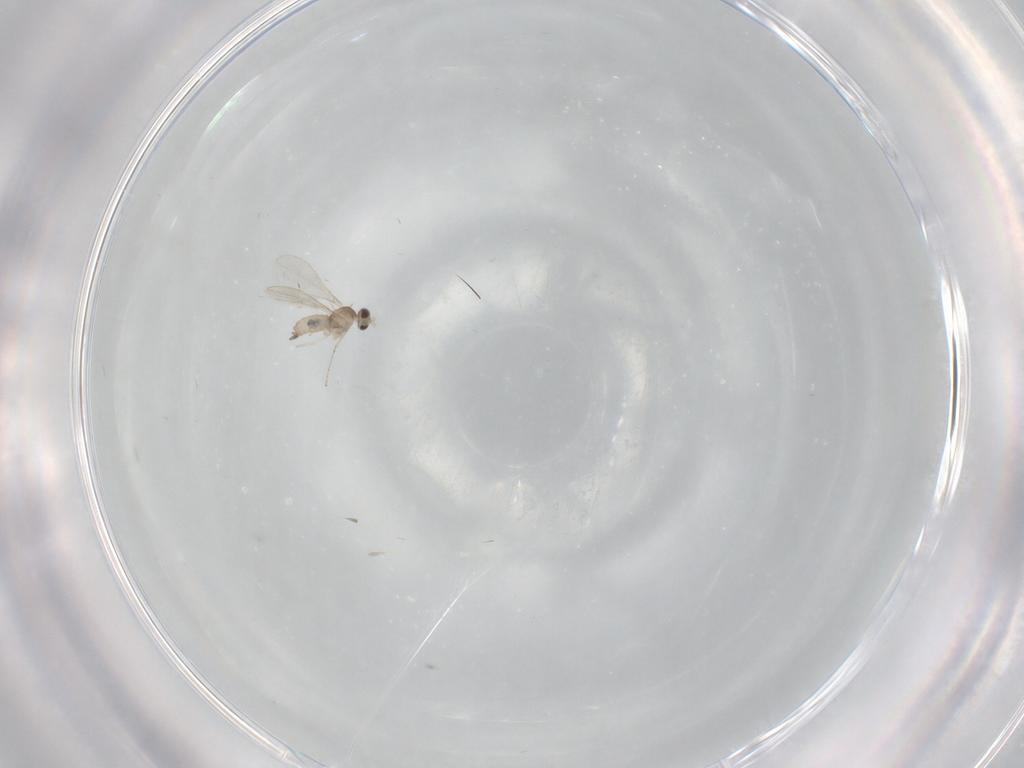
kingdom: Animalia
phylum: Arthropoda
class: Insecta
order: Diptera
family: Cecidomyiidae
